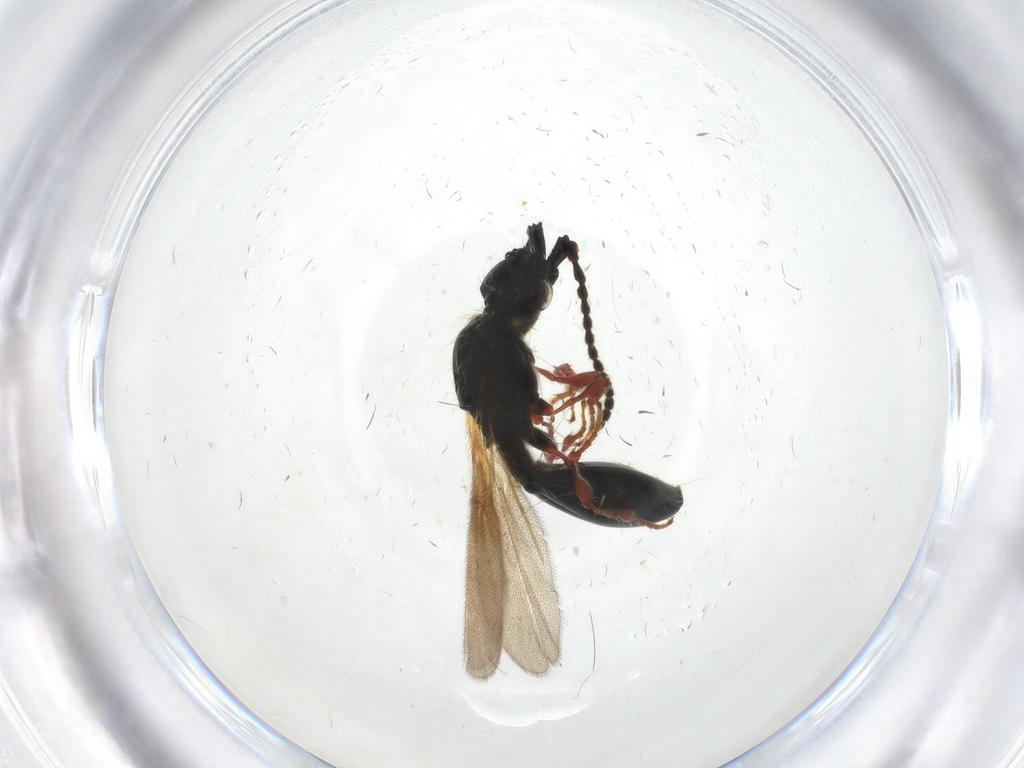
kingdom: Animalia
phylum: Arthropoda
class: Insecta
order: Hymenoptera
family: Diapriidae
